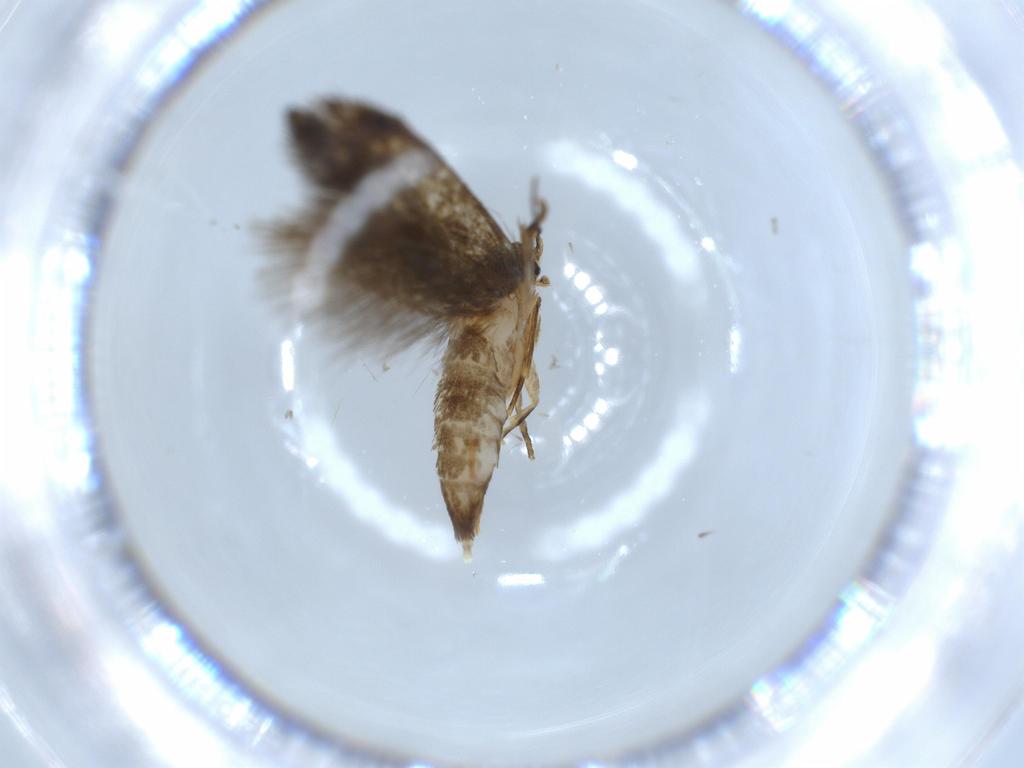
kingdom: Animalia
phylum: Arthropoda
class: Insecta
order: Lepidoptera
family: Tineidae
